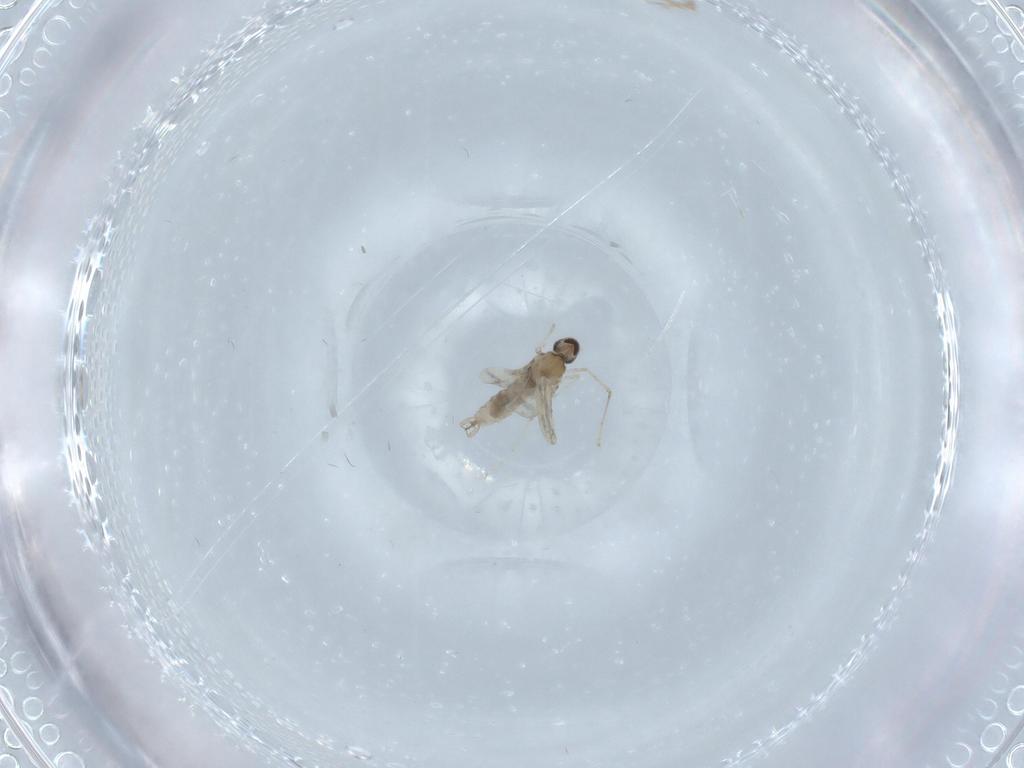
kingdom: Animalia
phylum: Arthropoda
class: Insecta
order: Diptera
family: Cecidomyiidae
